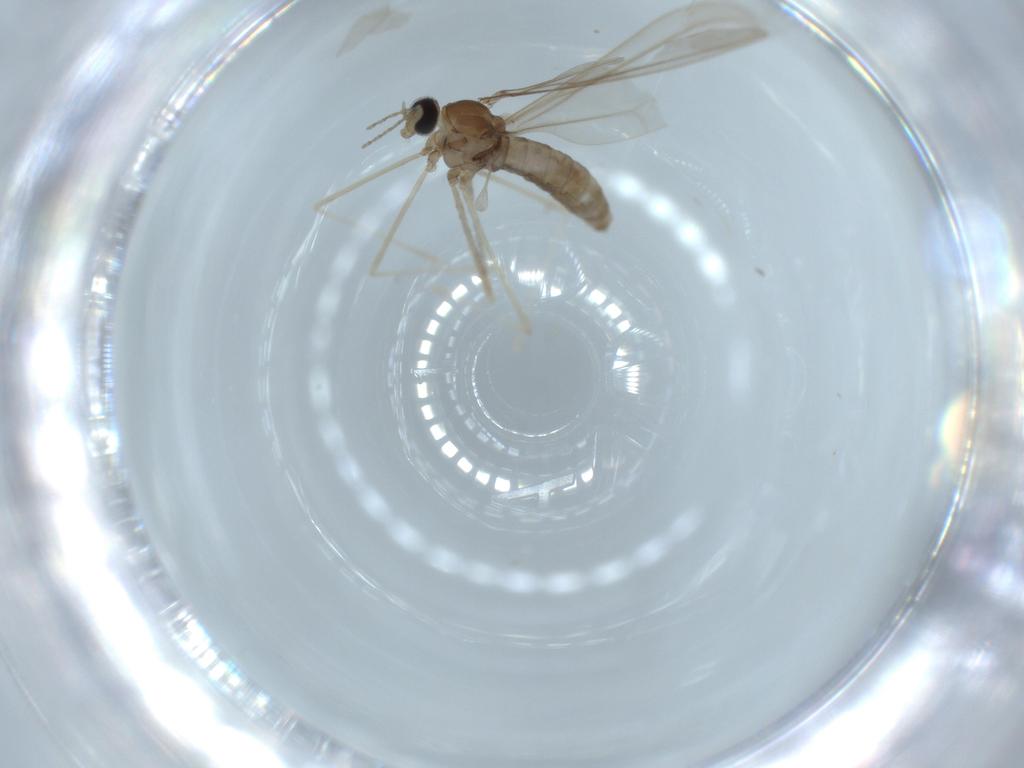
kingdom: Animalia
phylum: Arthropoda
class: Insecta
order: Diptera
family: Cecidomyiidae
